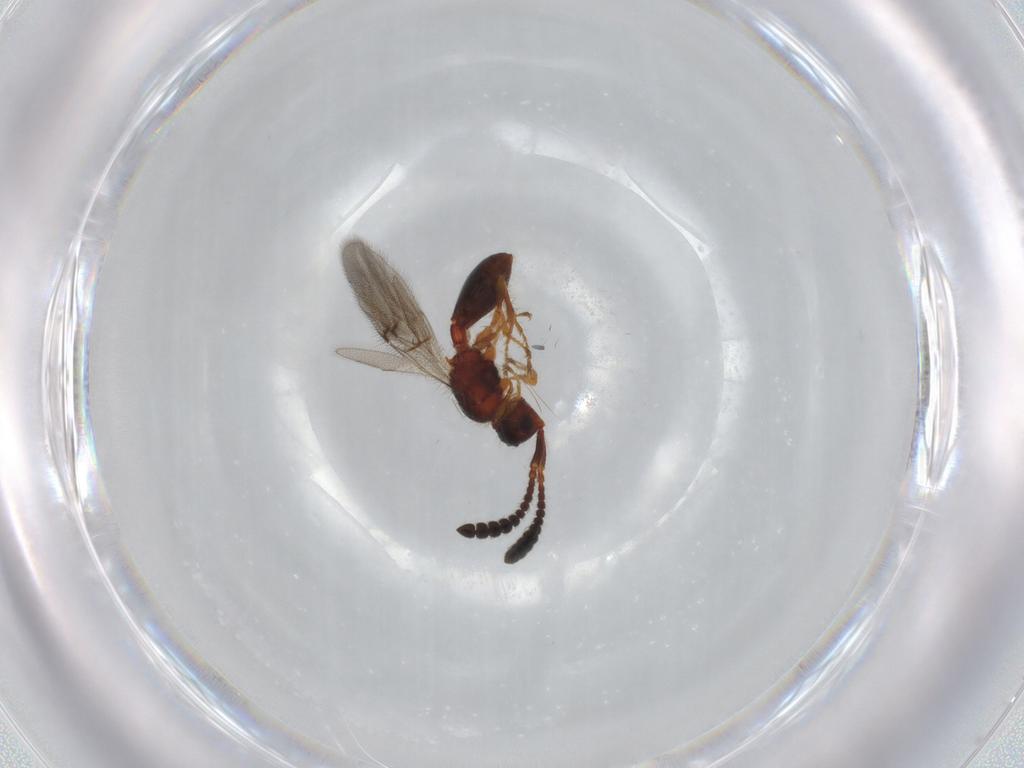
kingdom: Animalia
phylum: Arthropoda
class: Insecta
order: Hymenoptera
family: Diapriidae
